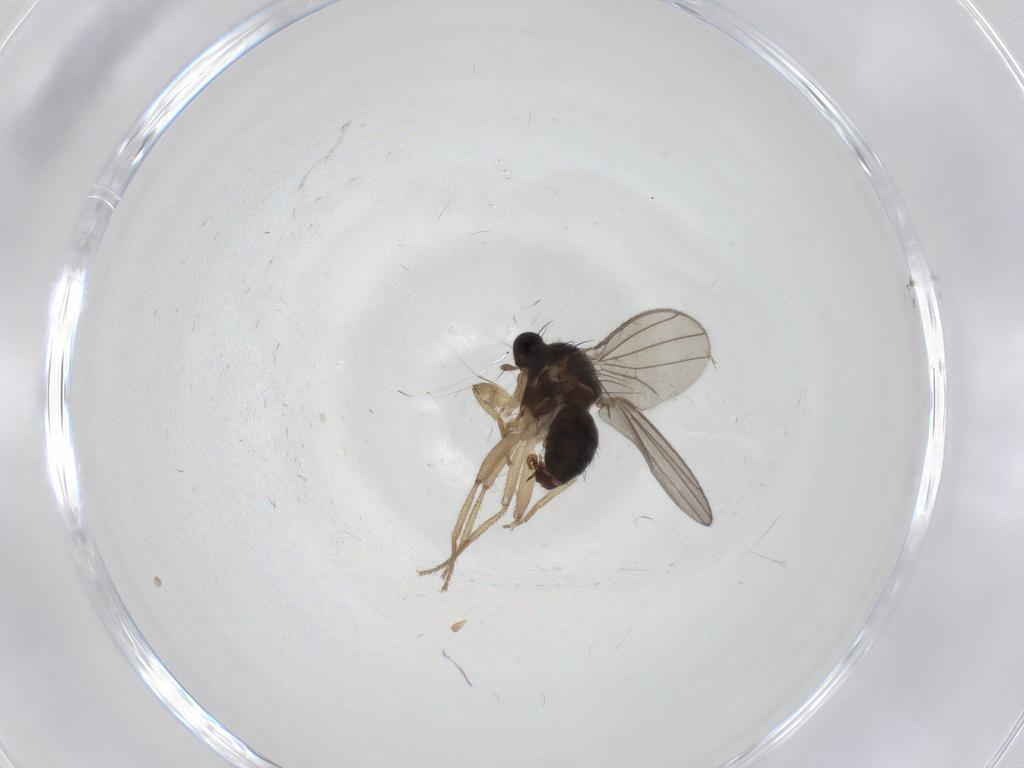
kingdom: Animalia
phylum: Arthropoda
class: Insecta
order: Diptera
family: Inbiomyiidae
